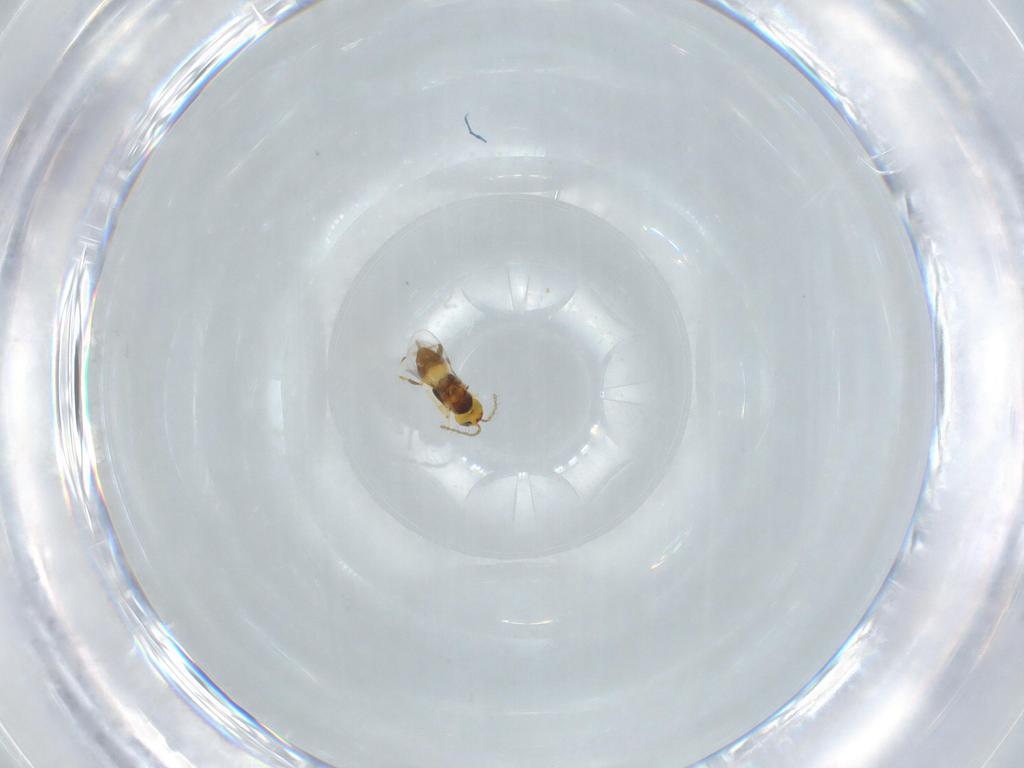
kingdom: Animalia
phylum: Arthropoda
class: Insecta
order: Hymenoptera
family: Encyrtidae
